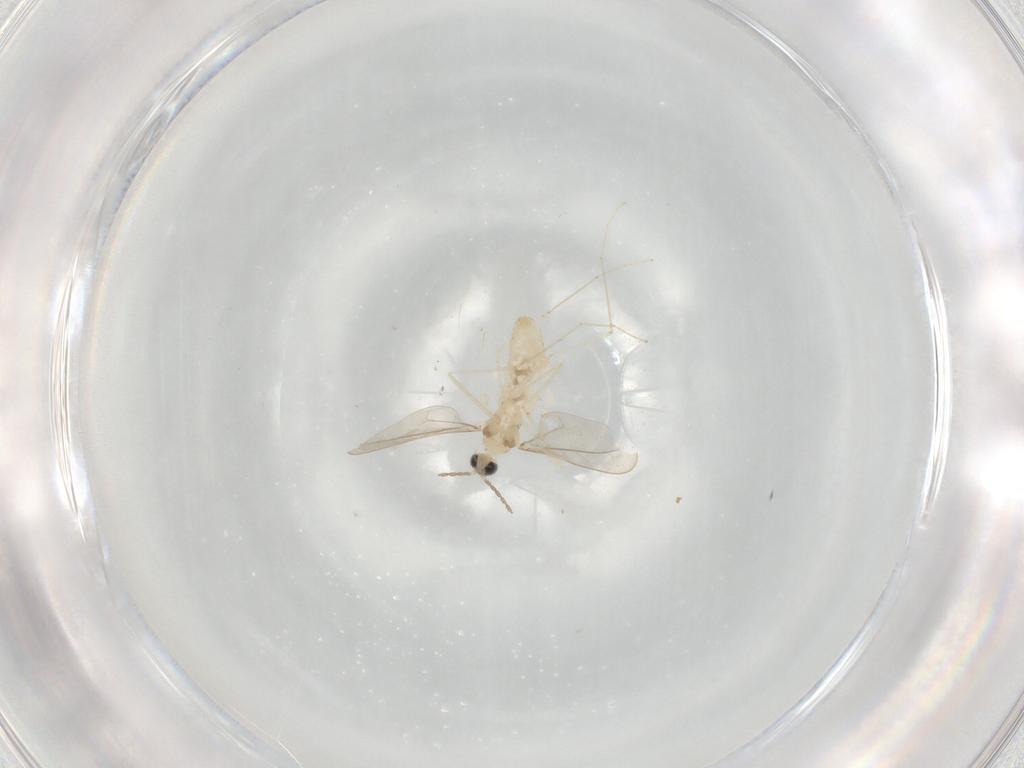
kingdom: Animalia
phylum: Arthropoda
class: Insecta
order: Diptera
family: Cecidomyiidae
